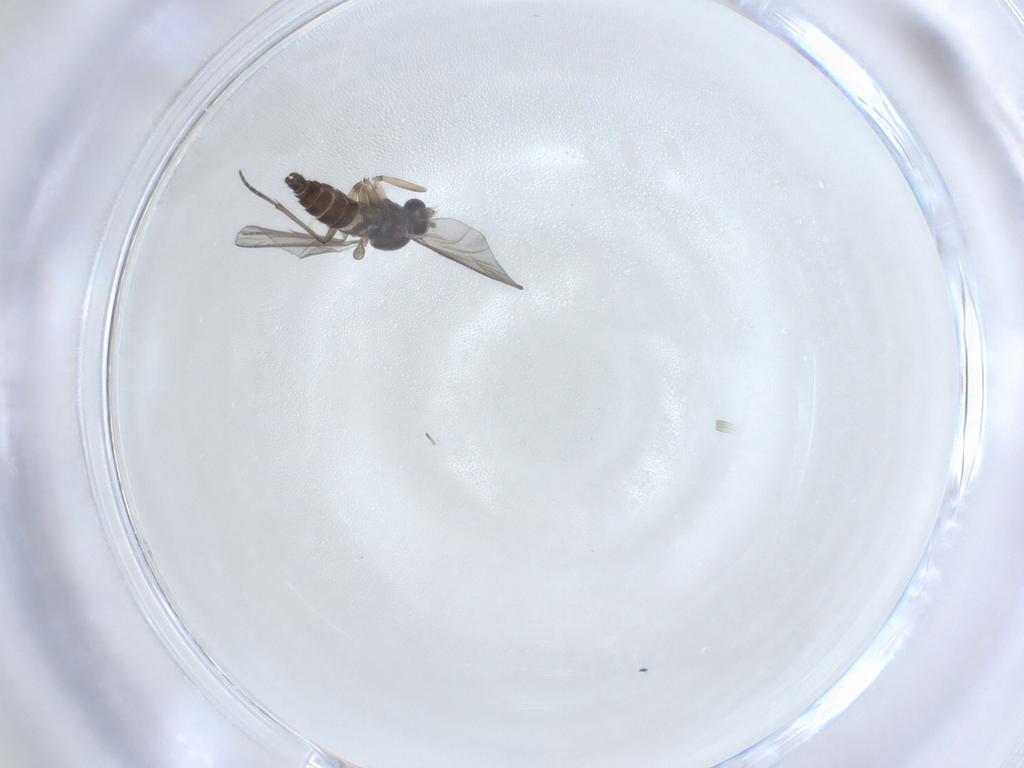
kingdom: Animalia
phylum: Arthropoda
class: Insecta
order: Diptera
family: Sciaridae
